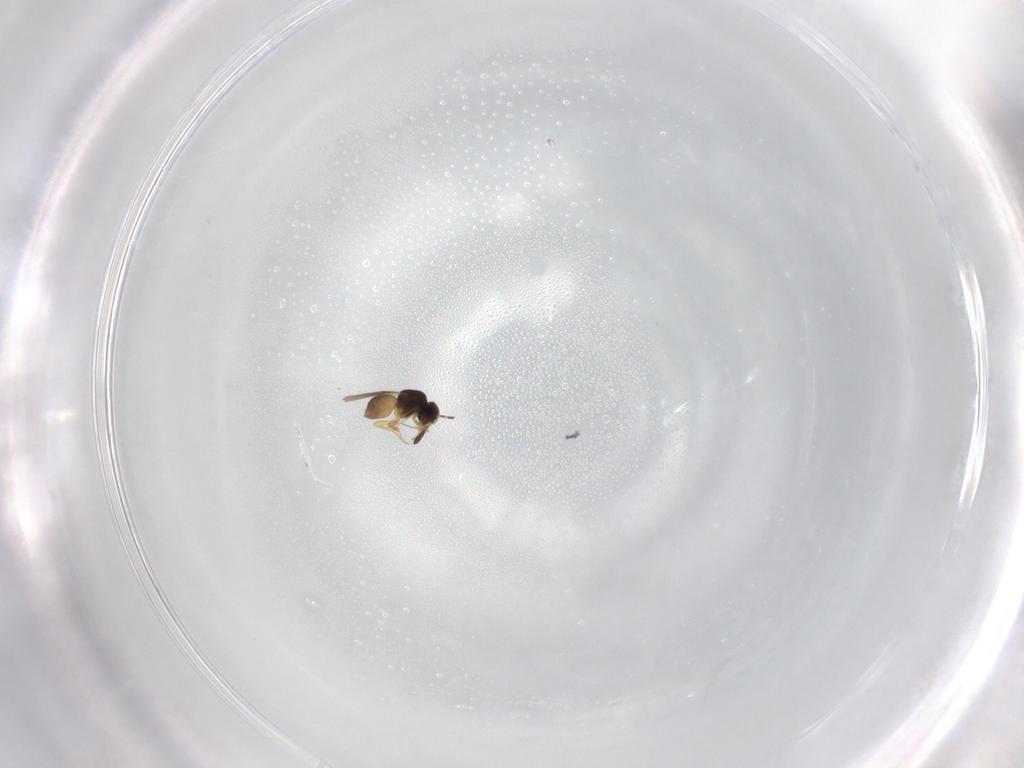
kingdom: Animalia
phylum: Arthropoda
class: Insecta
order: Hymenoptera
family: Eulophidae
